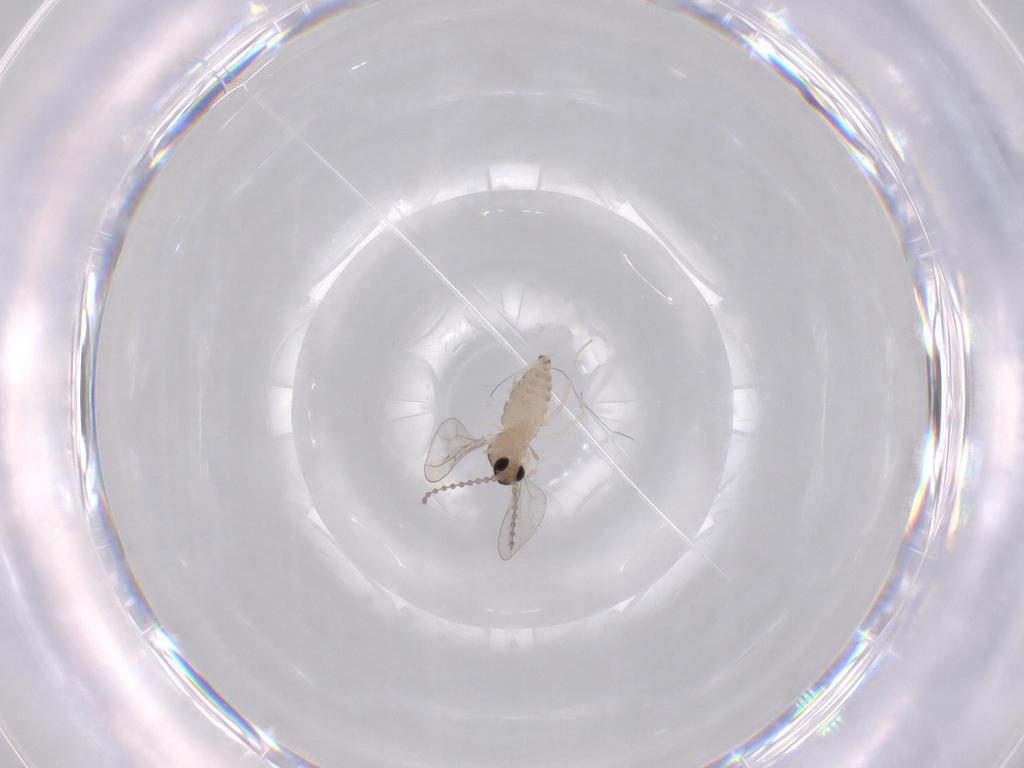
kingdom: Animalia
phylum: Arthropoda
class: Insecta
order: Diptera
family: Cecidomyiidae
